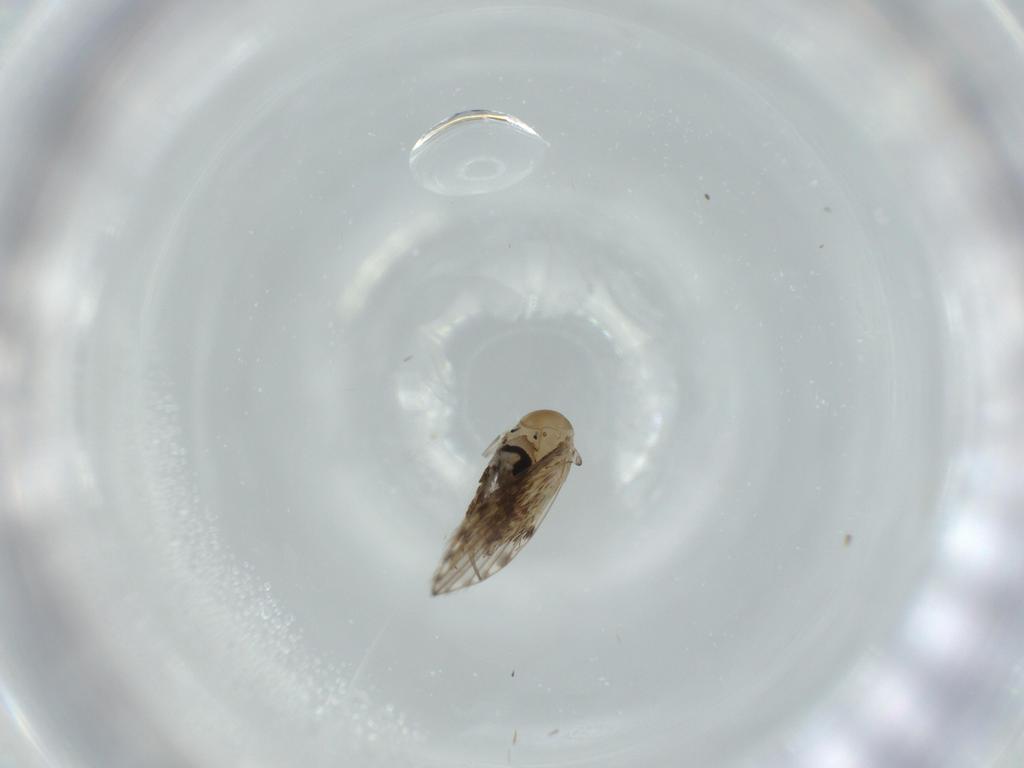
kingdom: Animalia
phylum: Arthropoda
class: Insecta
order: Diptera
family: Psychodidae
